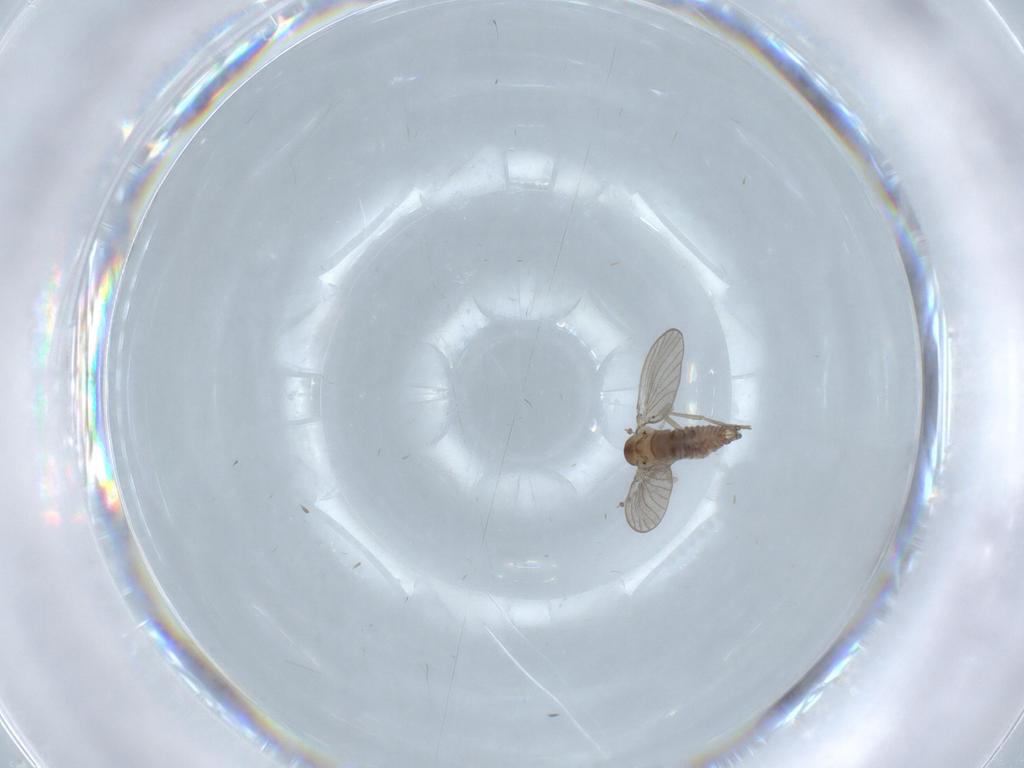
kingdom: Animalia
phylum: Arthropoda
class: Insecta
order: Diptera
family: Psychodidae
